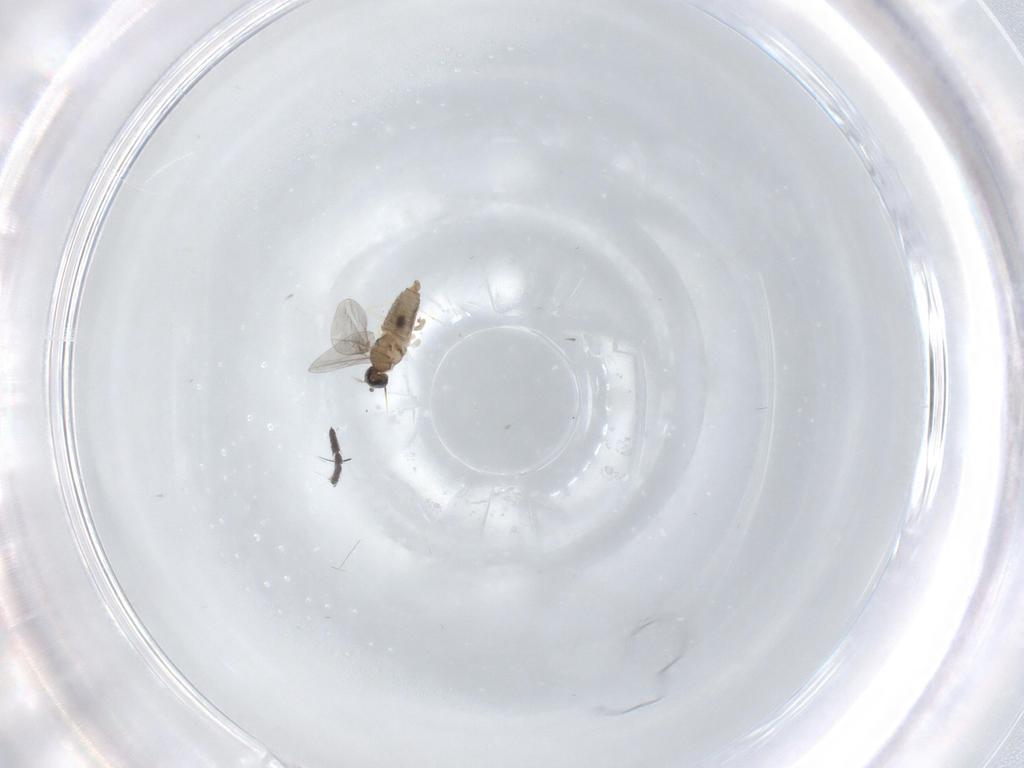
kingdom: Animalia
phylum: Arthropoda
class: Insecta
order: Diptera
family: Cecidomyiidae
